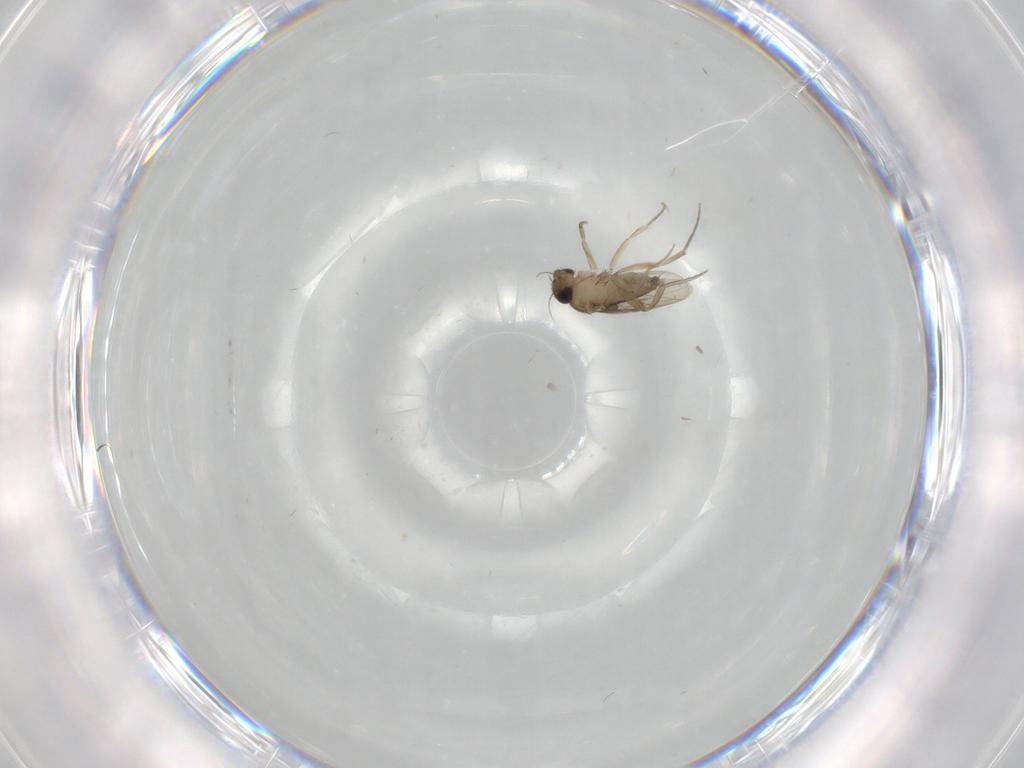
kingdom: Animalia
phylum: Arthropoda
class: Insecta
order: Diptera
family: Phoridae
